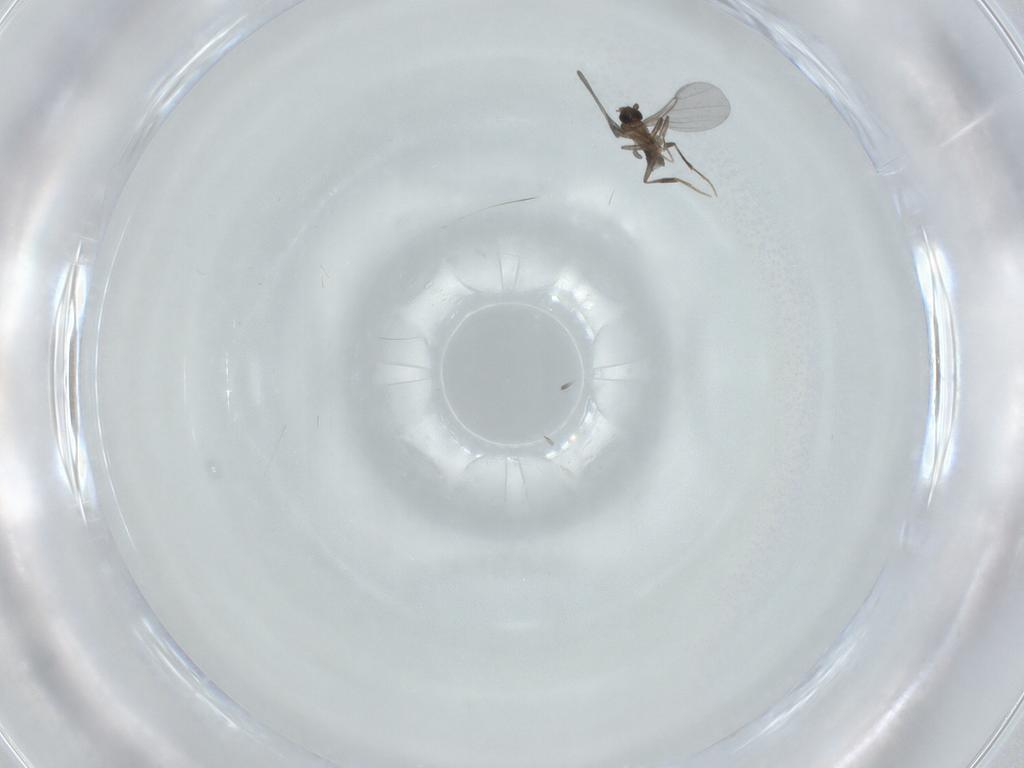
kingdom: Animalia
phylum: Arthropoda
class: Insecta
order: Diptera
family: Phoridae
